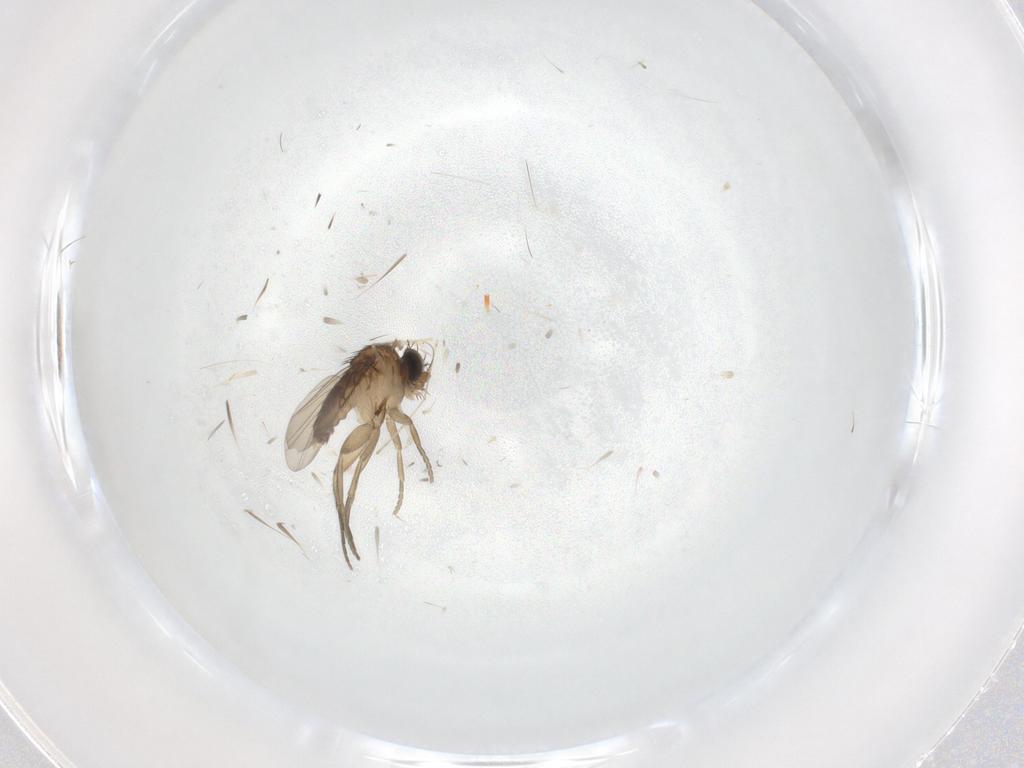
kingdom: Animalia
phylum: Arthropoda
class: Insecta
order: Diptera
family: Phoridae
